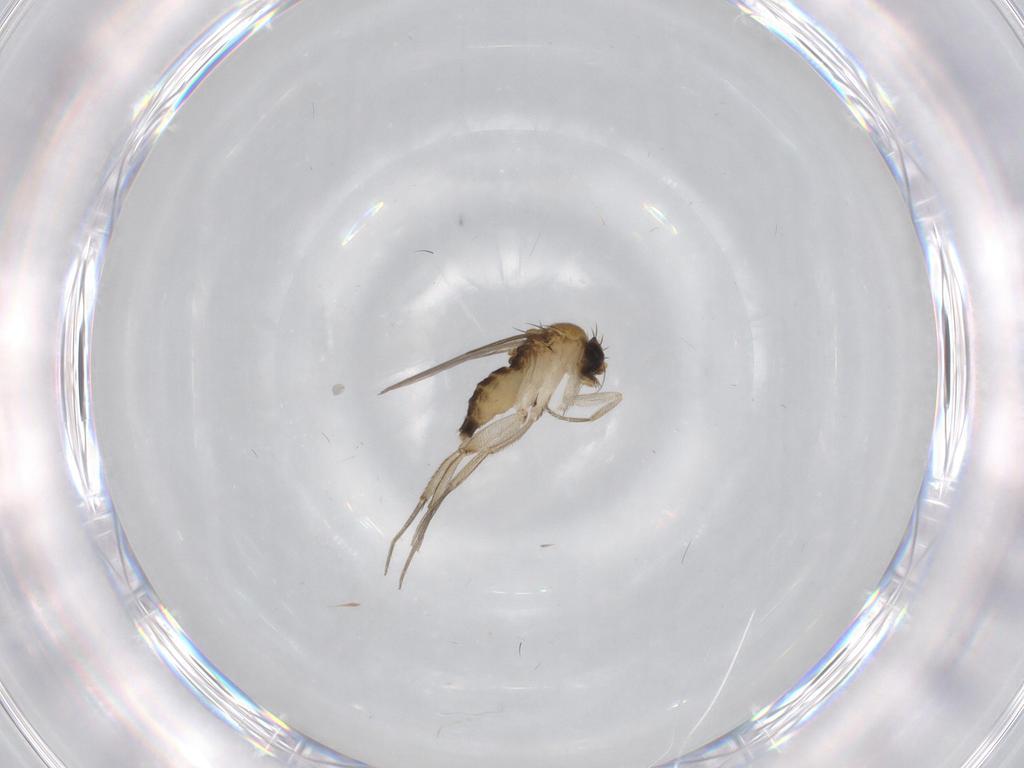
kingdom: Animalia
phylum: Arthropoda
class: Insecta
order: Diptera
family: Phoridae
